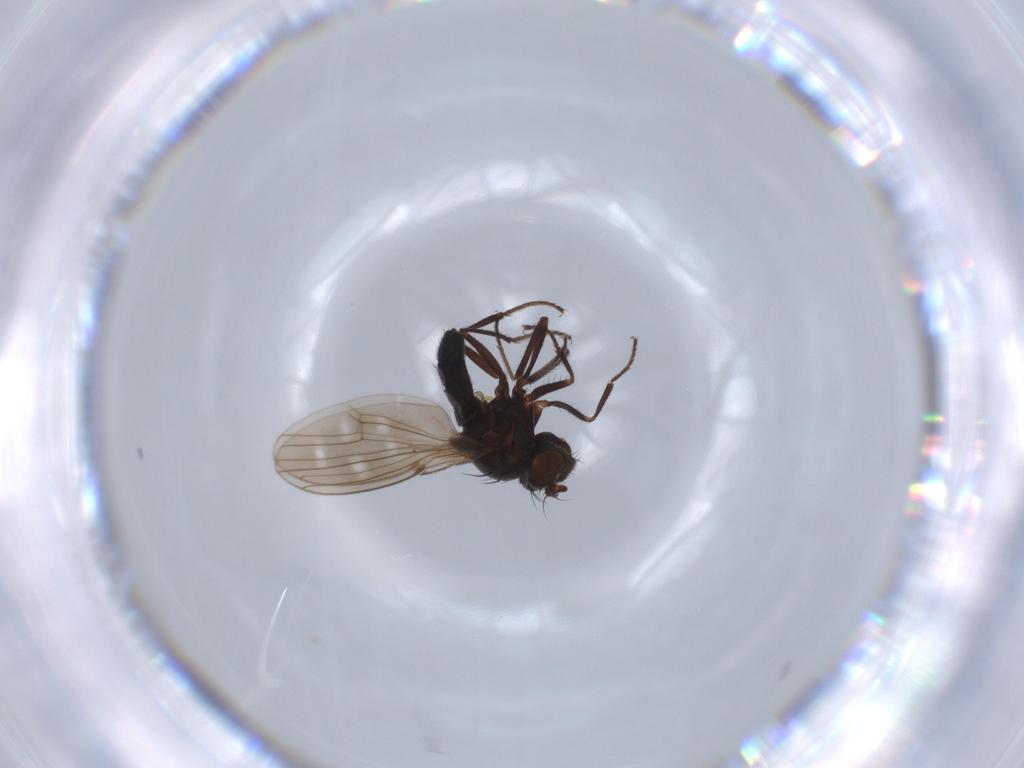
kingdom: Animalia
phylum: Arthropoda
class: Insecta
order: Diptera
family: Ephydridae
